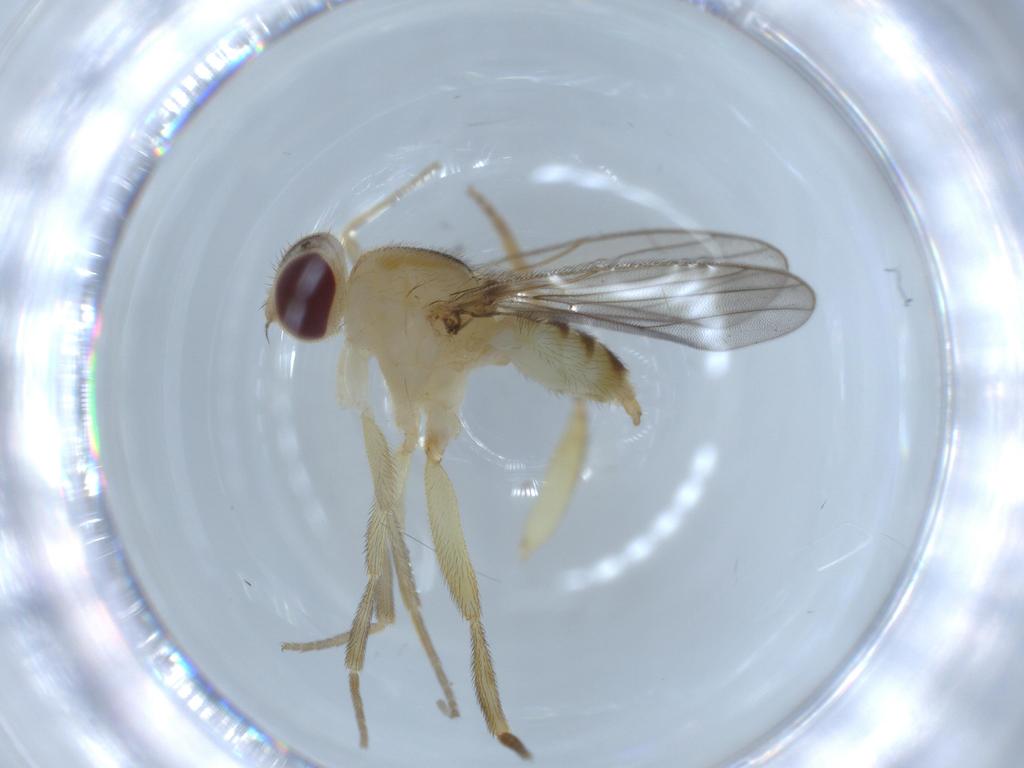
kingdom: Animalia
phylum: Arthropoda
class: Insecta
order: Diptera
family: Chloropidae
